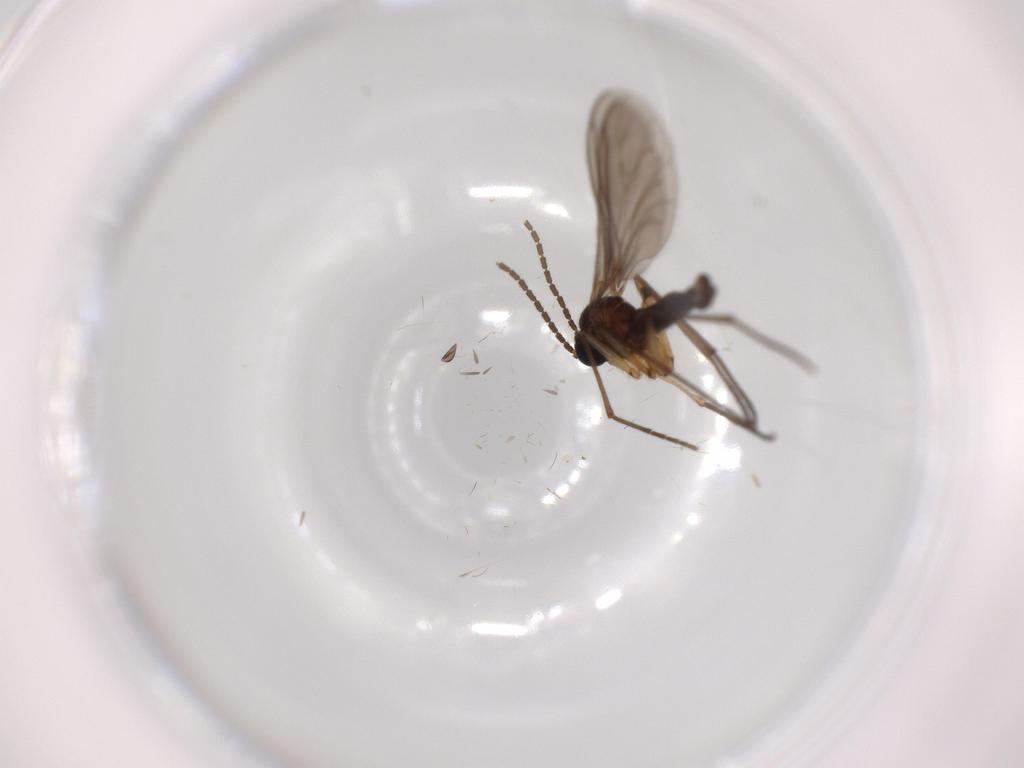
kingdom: Animalia
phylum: Arthropoda
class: Insecta
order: Diptera
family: Sciaridae
